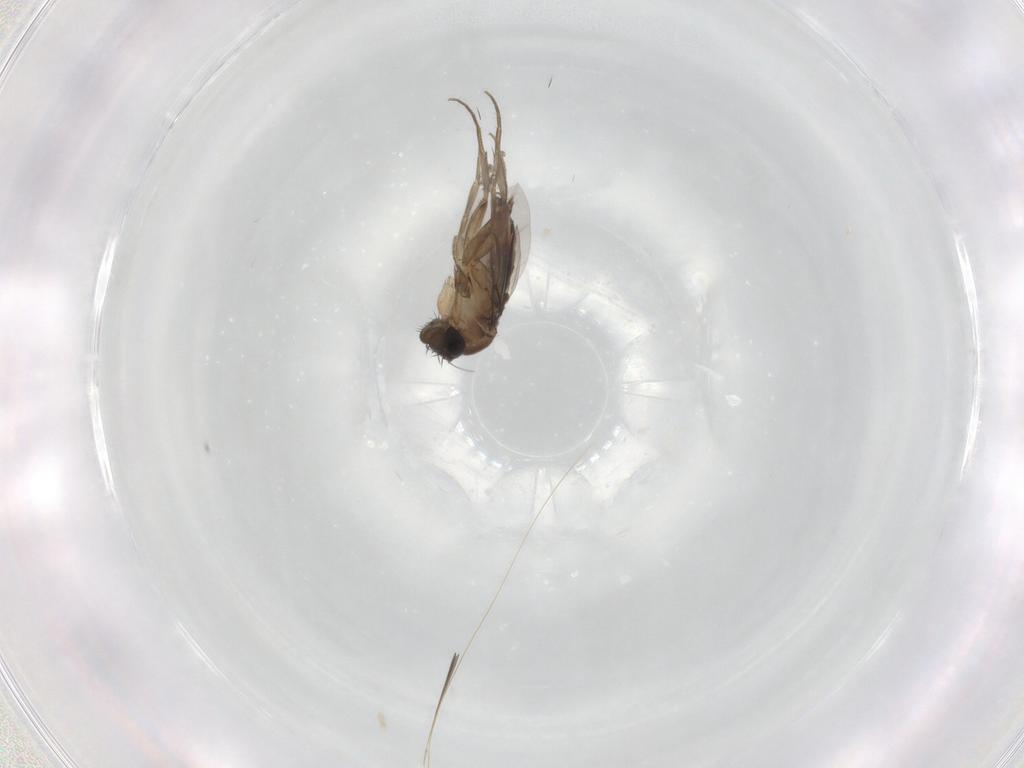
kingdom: Animalia
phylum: Arthropoda
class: Insecta
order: Diptera
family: Phoridae
